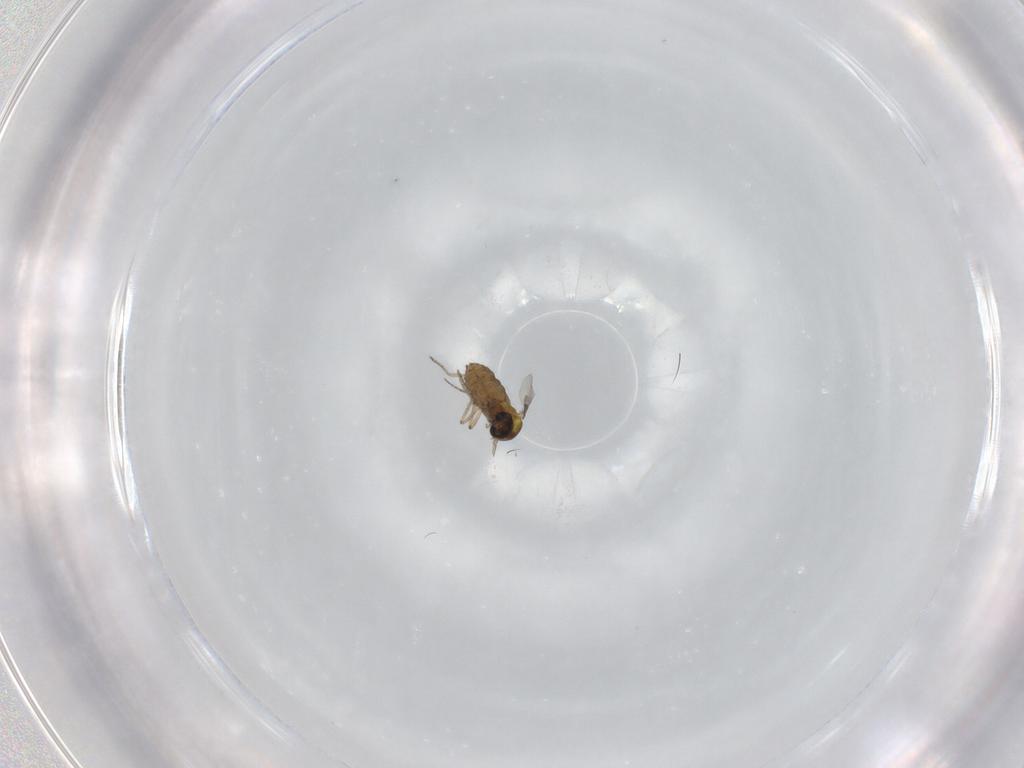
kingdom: Animalia
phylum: Arthropoda
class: Insecta
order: Diptera
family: Ceratopogonidae
